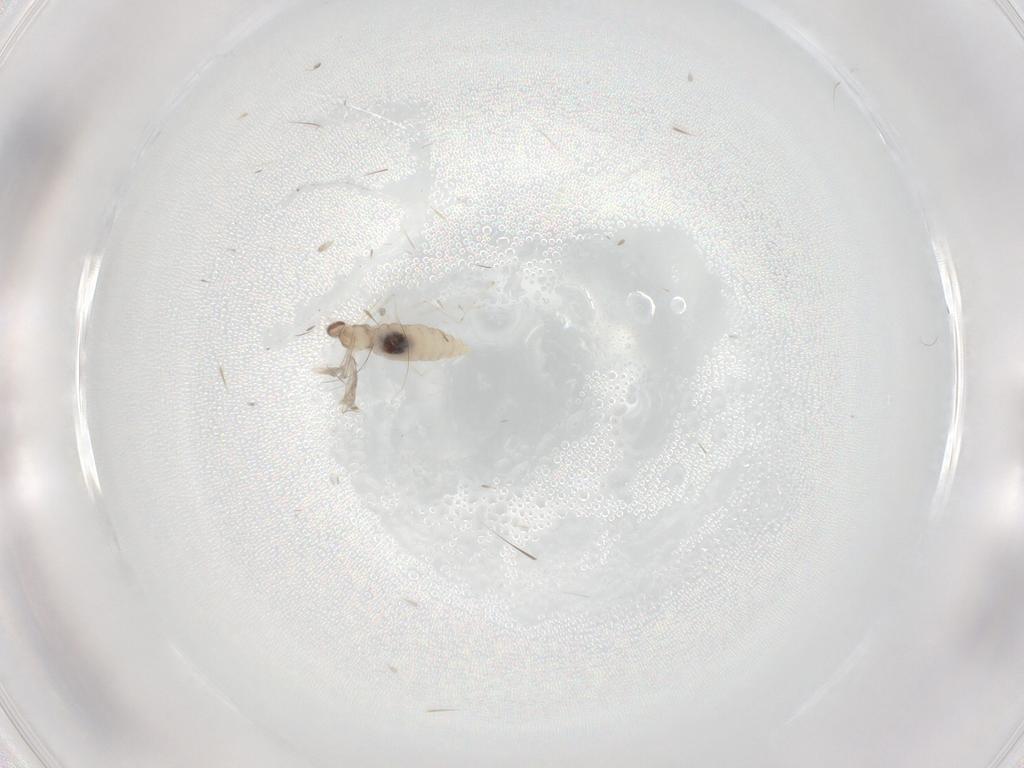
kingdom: Animalia
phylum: Arthropoda
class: Insecta
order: Diptera
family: Cecidomyiidae
